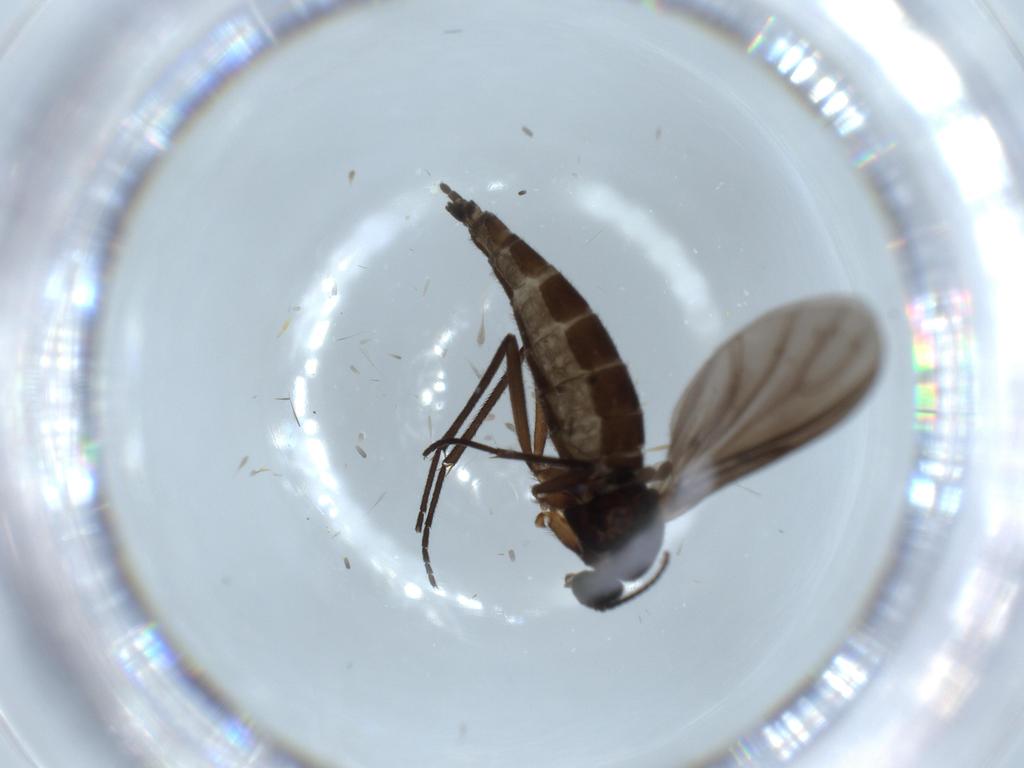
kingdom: Animalia
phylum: Arthropoda
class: Insecta
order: Diptera
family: Sciaridae
